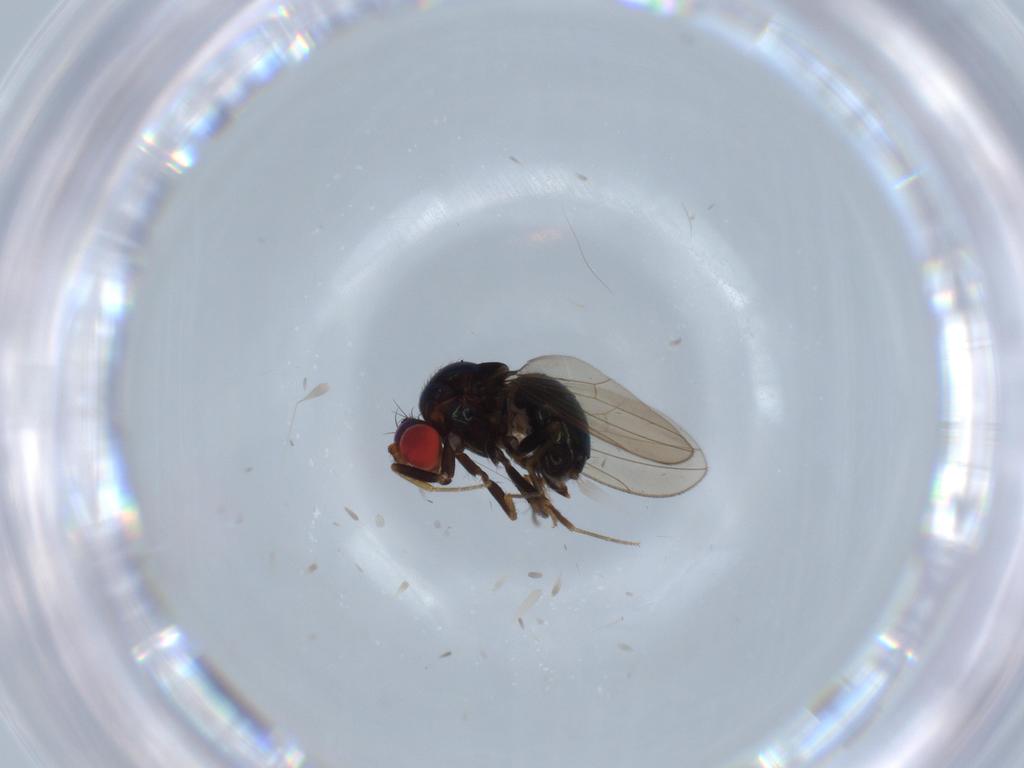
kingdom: Animalia
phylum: Arthropoda
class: Insecta
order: Diptera
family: Drosophilidae
